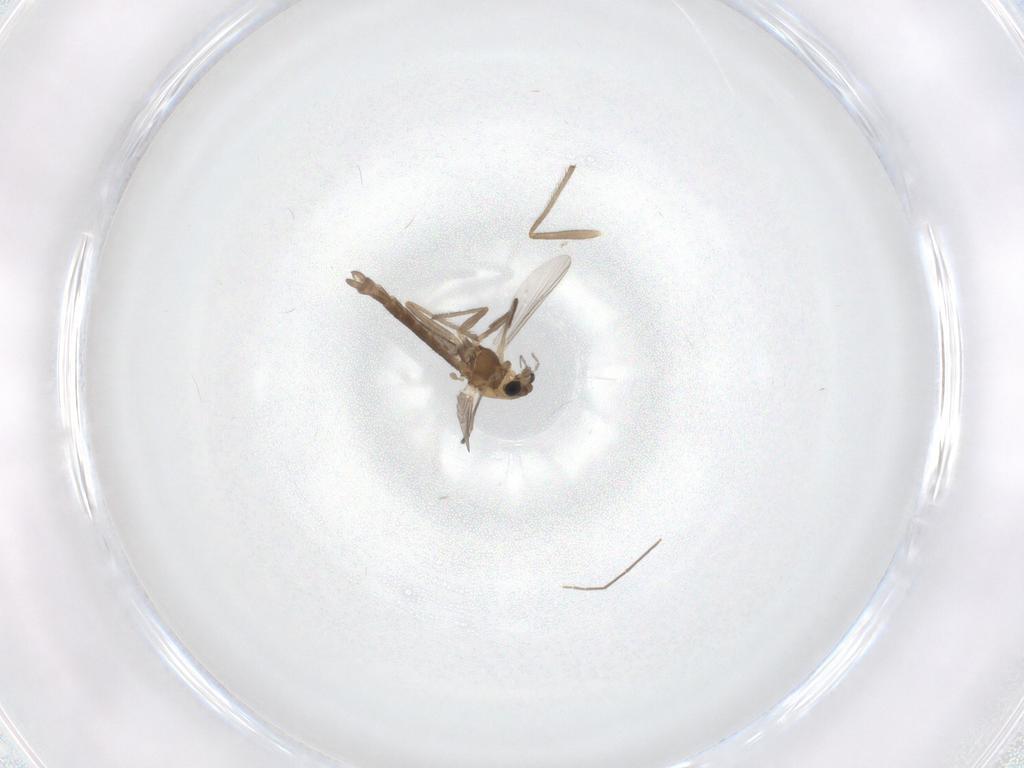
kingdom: Animalia
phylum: Arthropoda
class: Insecta
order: Diptera
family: Chironomidae
